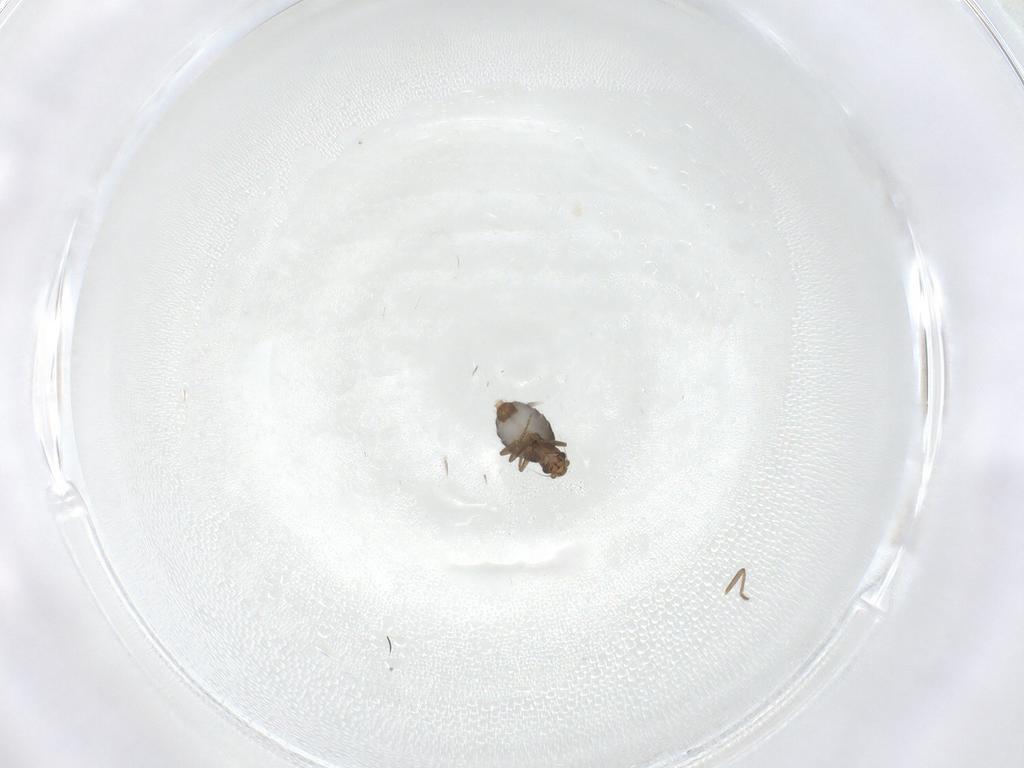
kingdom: Animalia
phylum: Arthropoda
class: Insecta
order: Diptera
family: Phoridae
